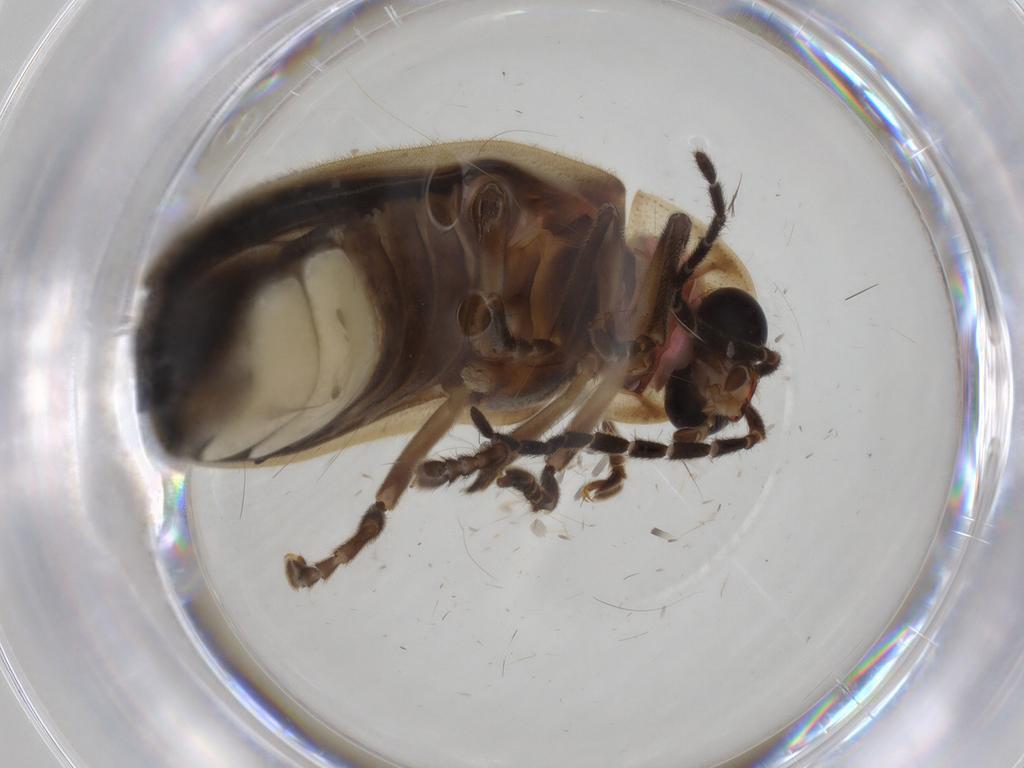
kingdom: Animalia
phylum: Arthropoda
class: Insecta
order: Coleoptera
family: Lampyridae
